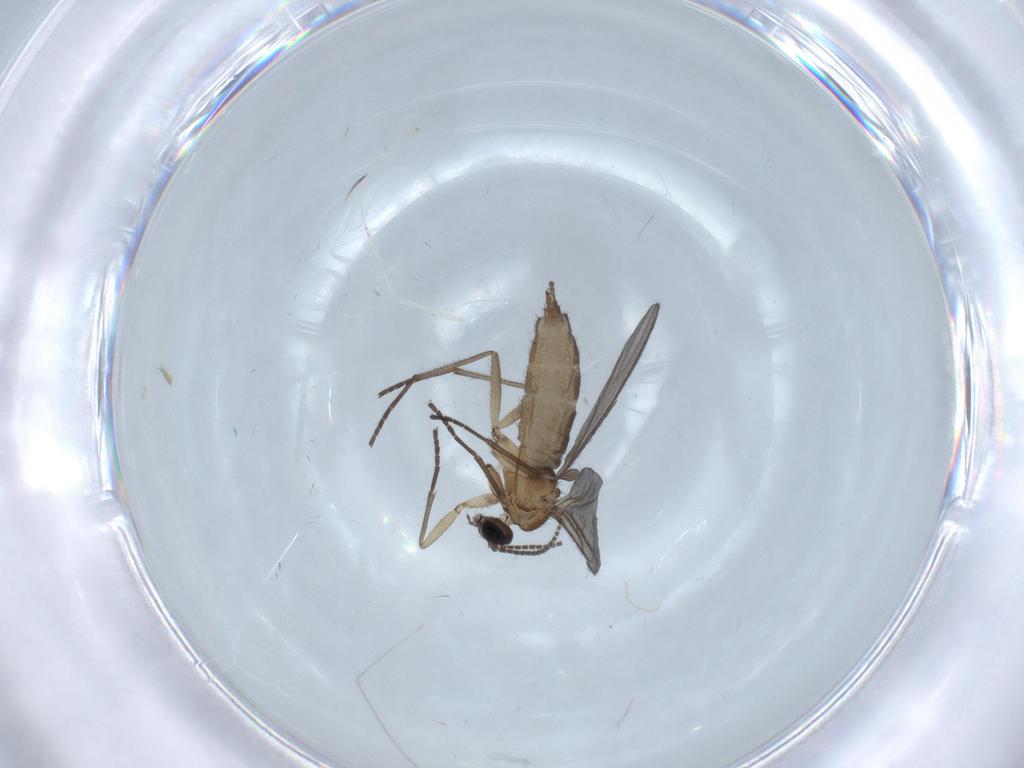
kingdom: Animalia
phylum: Arthropoda
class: Insecta
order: Diptera
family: Sciaridae
